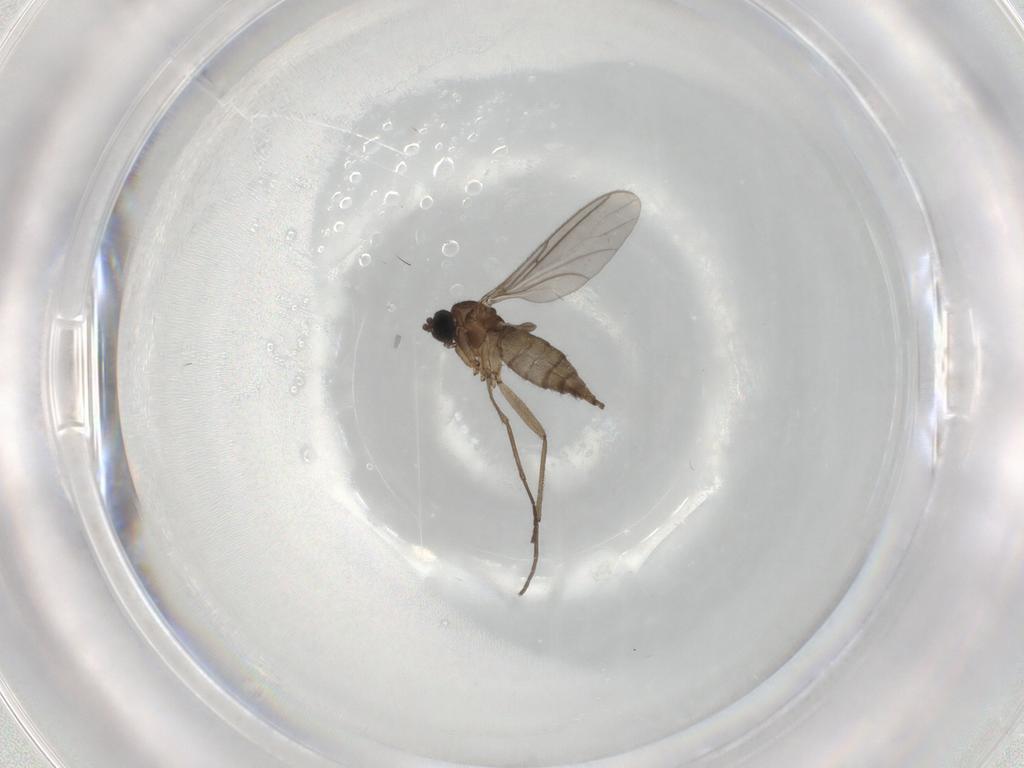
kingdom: Animalia
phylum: Arthropoda
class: Insecta
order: Diptera
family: Sciaridae
